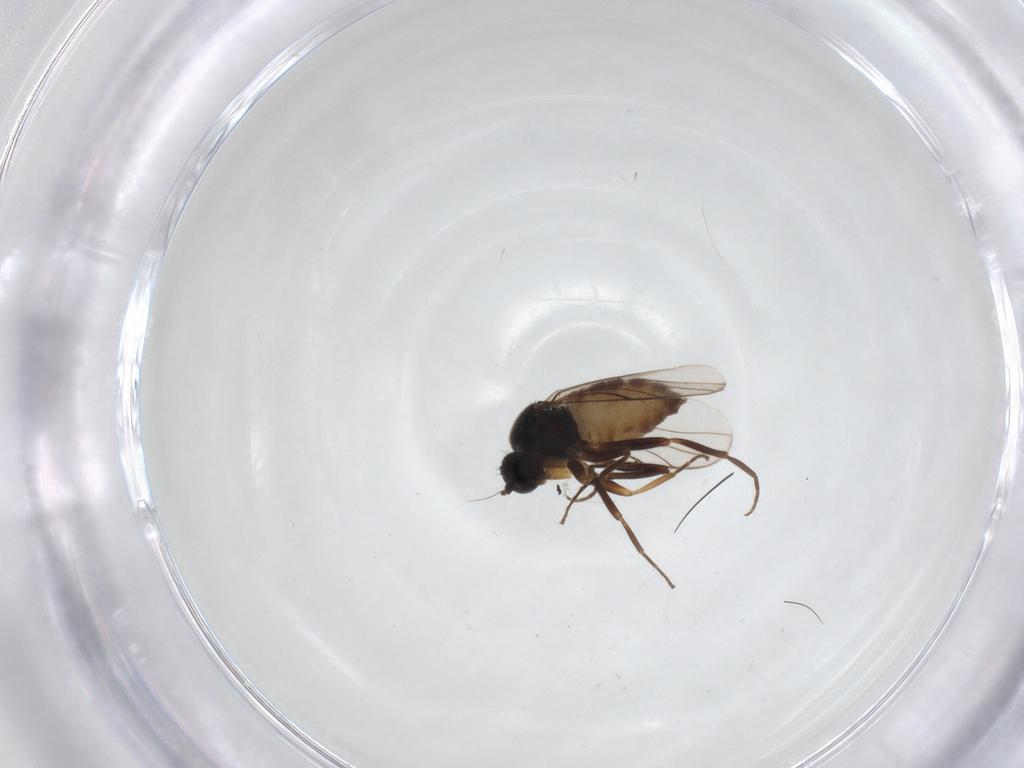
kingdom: Animalia
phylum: Arthropoda
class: Insecta
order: Diptera
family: Hybotidae
